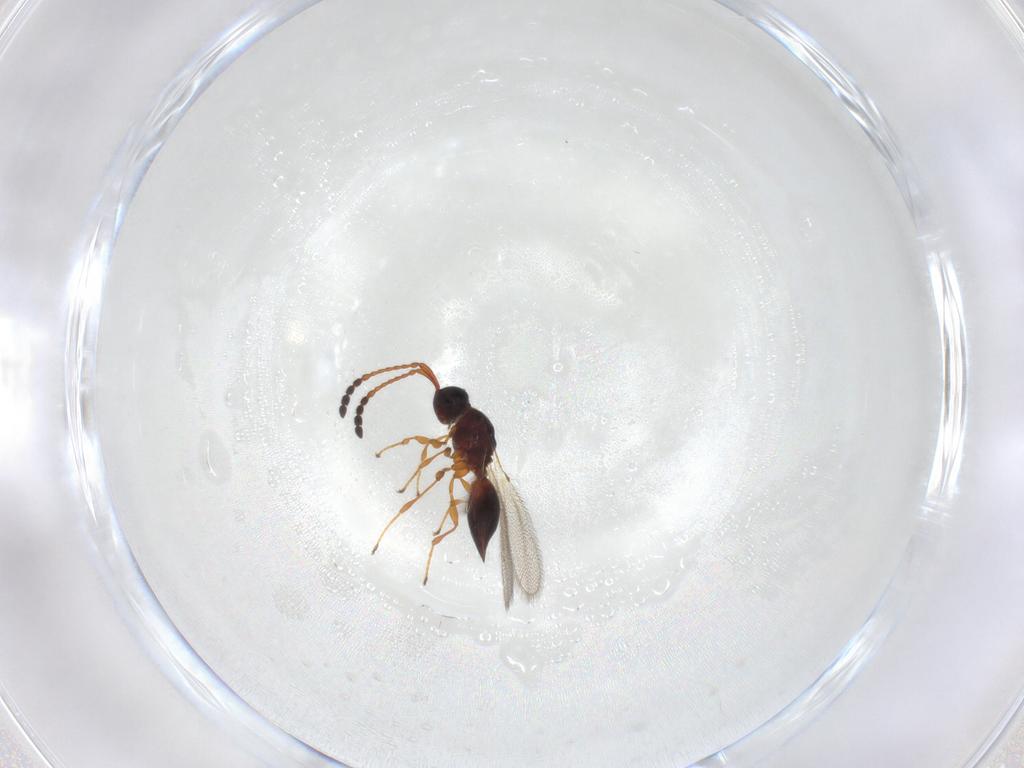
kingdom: Animalia
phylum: Arthropoda
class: Insecta
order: Hymenoptera
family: Diapriidae
